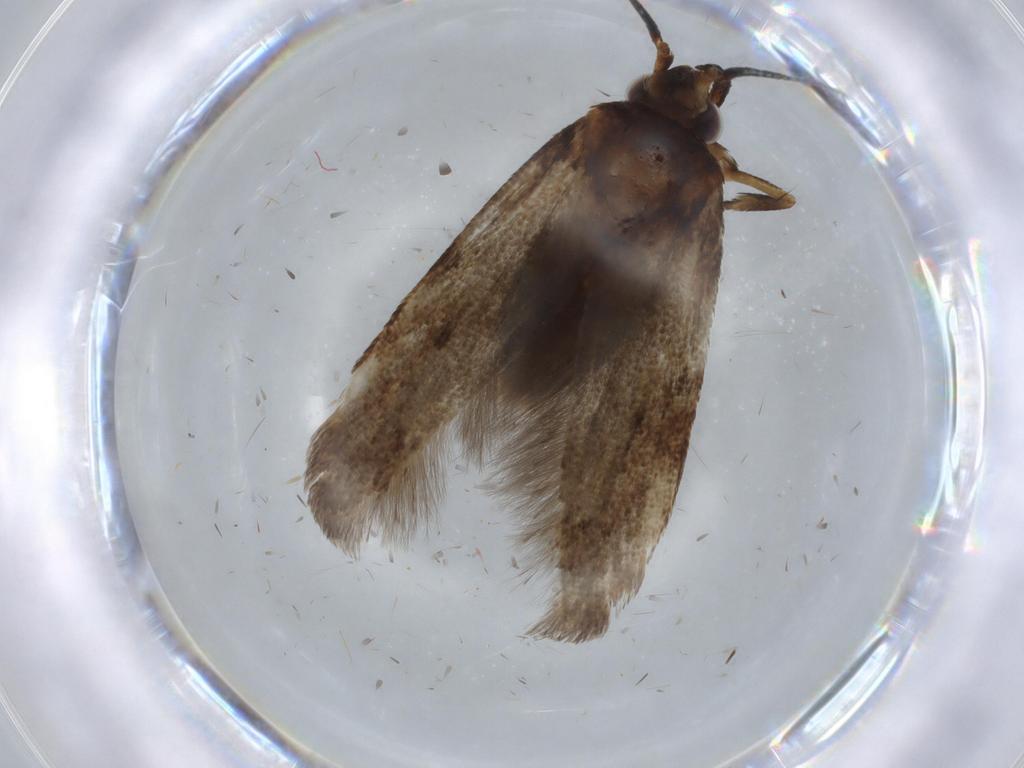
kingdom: Animalia
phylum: Arthropoda
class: Insecta
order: Lepidoptera
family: Coleophoridae
